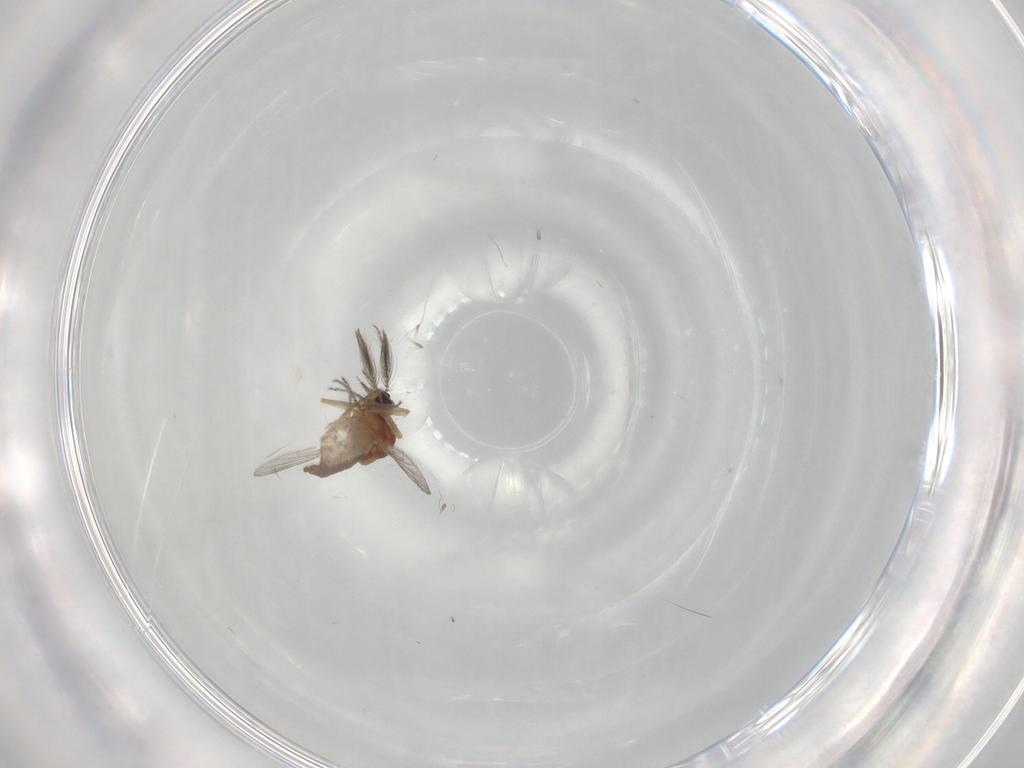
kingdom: Animalia
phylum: Arthropoda
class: Insecta
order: Diptera
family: Ceratopogonidae
